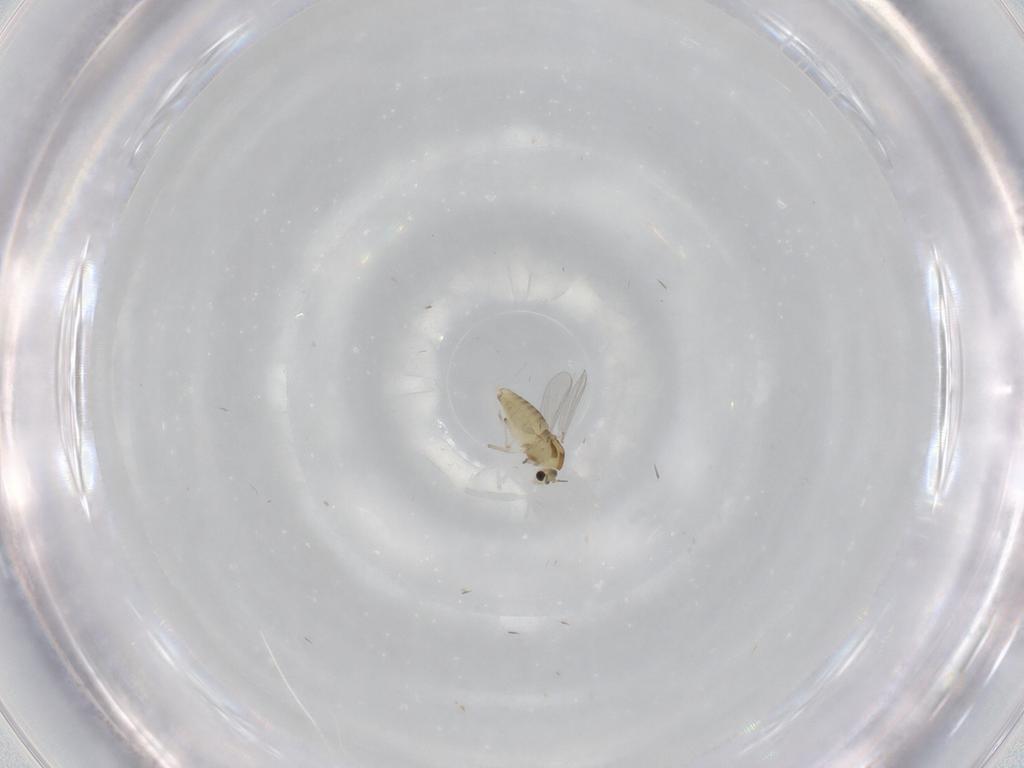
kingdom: Animalia
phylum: Arthropoda
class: Insecta
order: Diptera
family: Chironomidae
